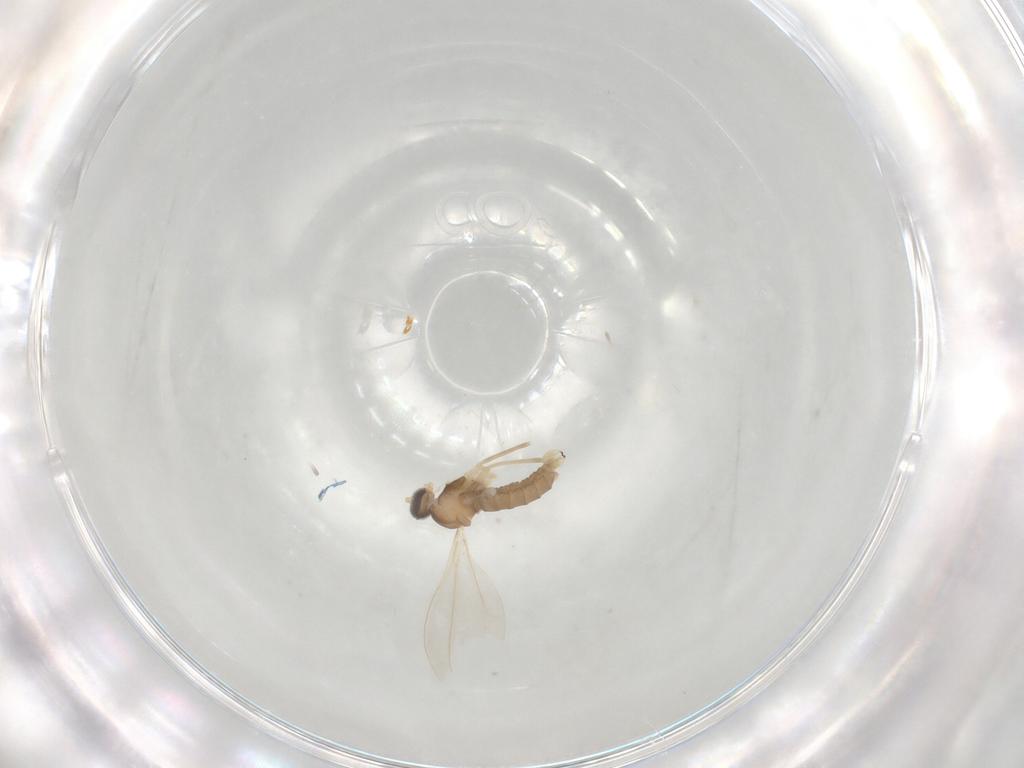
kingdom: Animalia
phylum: Arthropoda
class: Insecta
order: Diptera
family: Cecidomyiidae
